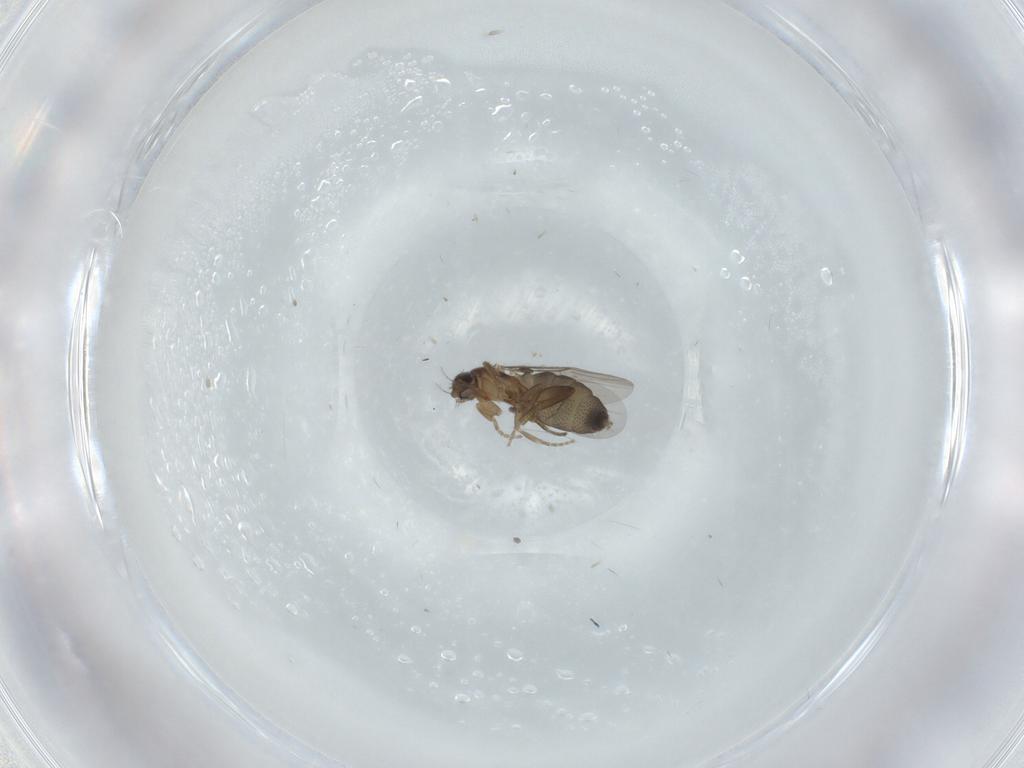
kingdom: Animalia
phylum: Arthropoda
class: Insecta
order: Diptera
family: Phoridae
